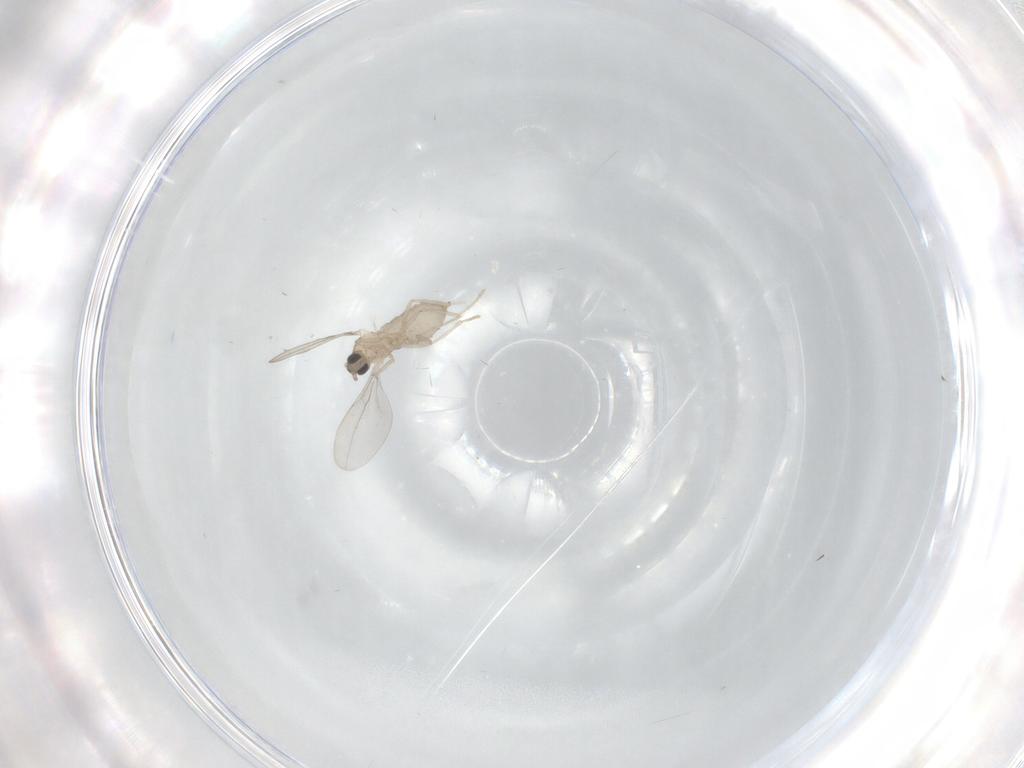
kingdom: Animalia
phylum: Arthropoda
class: Insecta
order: Diptera
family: Cecidomyiidae
